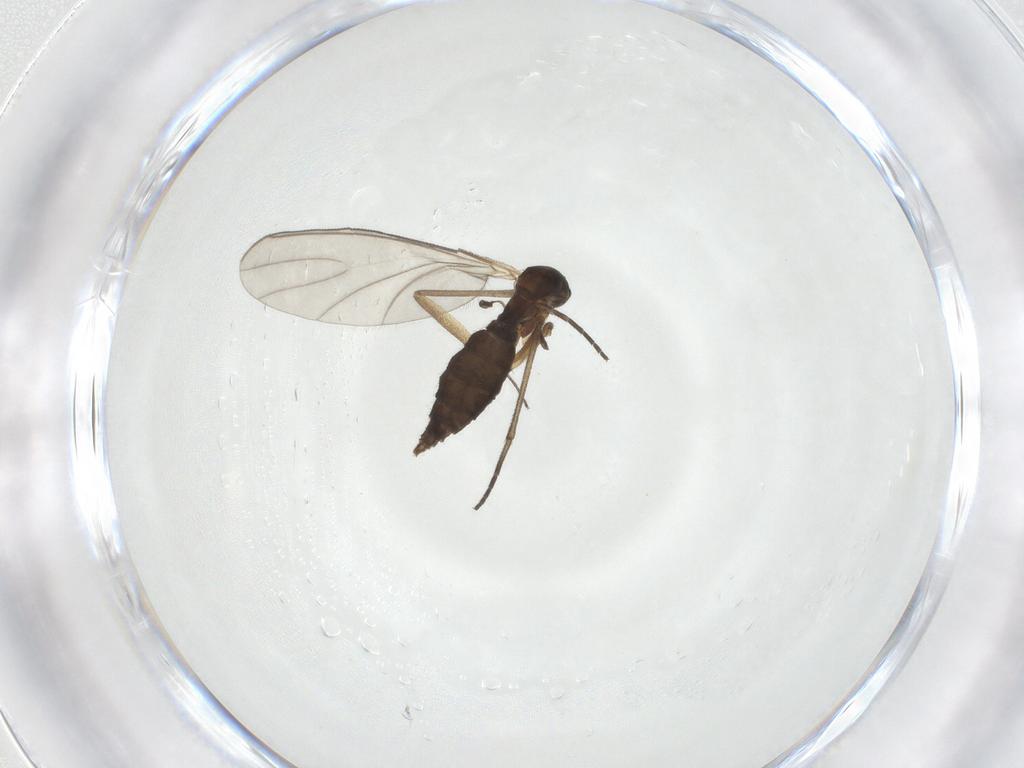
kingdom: Animalia
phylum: Arthropoda
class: Insecta
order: Diptera
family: Sciaridae
